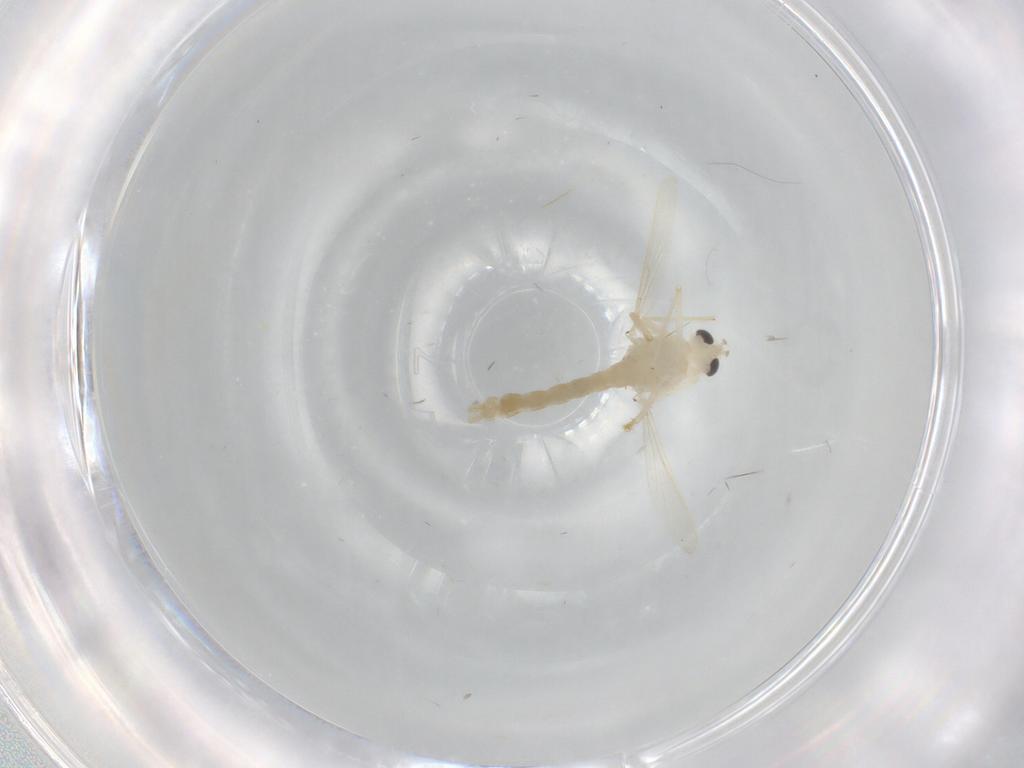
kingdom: Animalia
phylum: Arthropoda
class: Insecta
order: Diptera
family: Chironomidae
